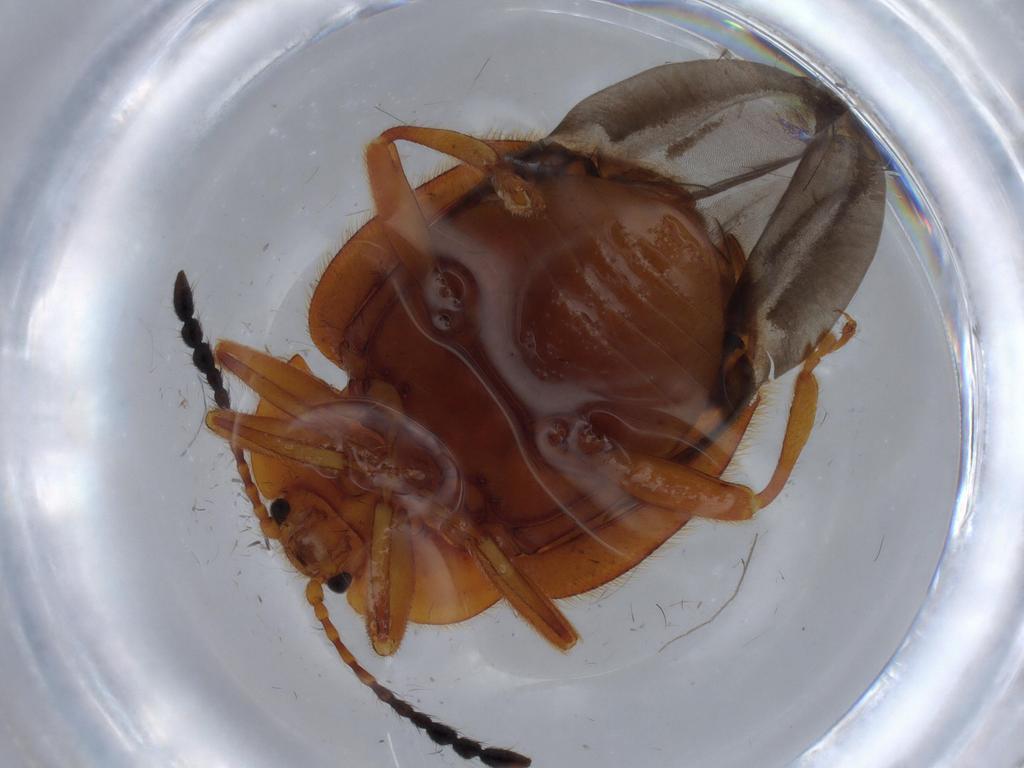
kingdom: Animalia
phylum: Arthropoda
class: Insecta
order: Coleoptera
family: Endomychidae
